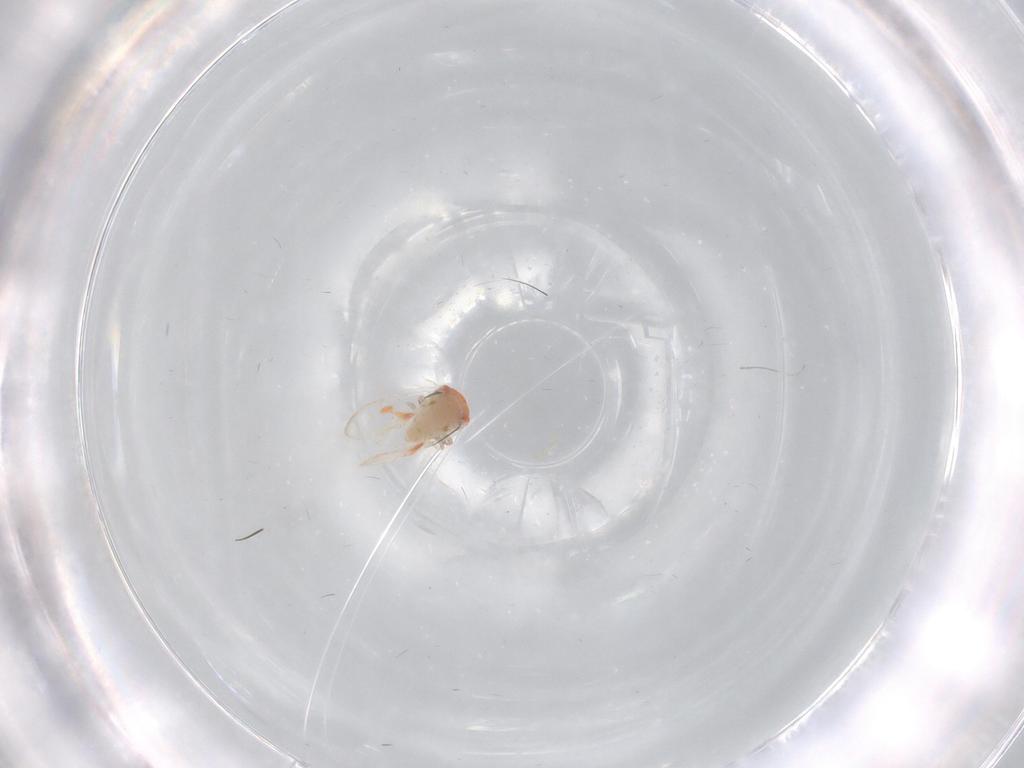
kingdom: Animalia
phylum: Arthropoda
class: Insecta
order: Hemiptera
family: Aleyrodidae
